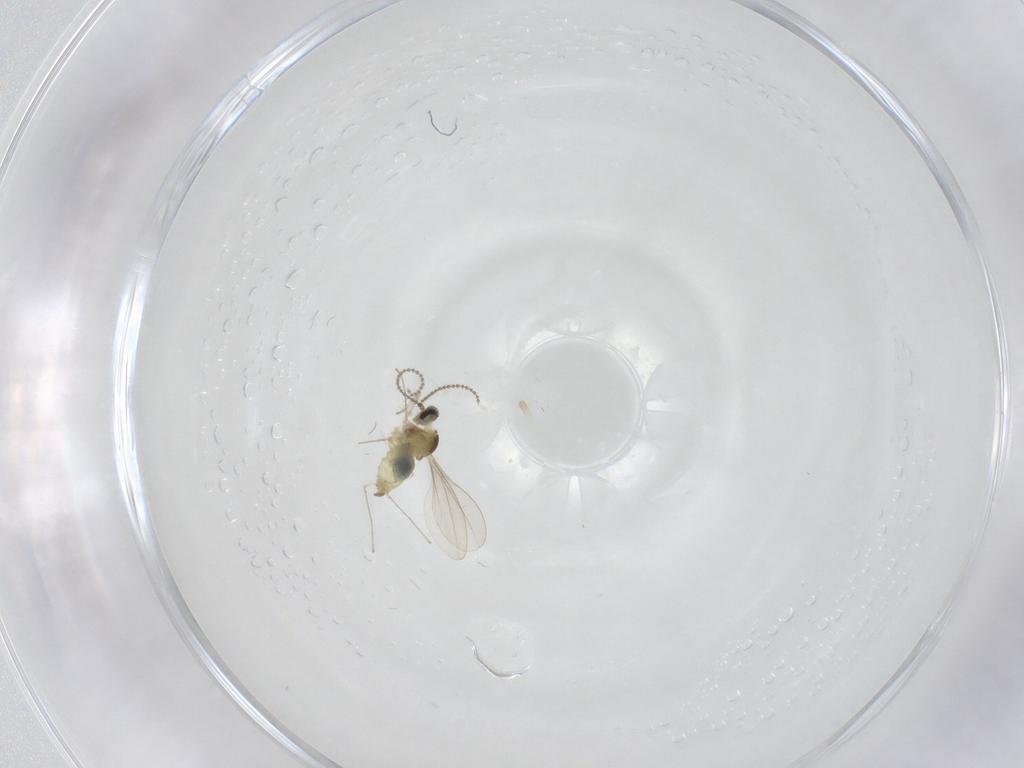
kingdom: Animalia
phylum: Arthropoda
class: Insecta
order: Diptera
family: Cecidomyiidae
